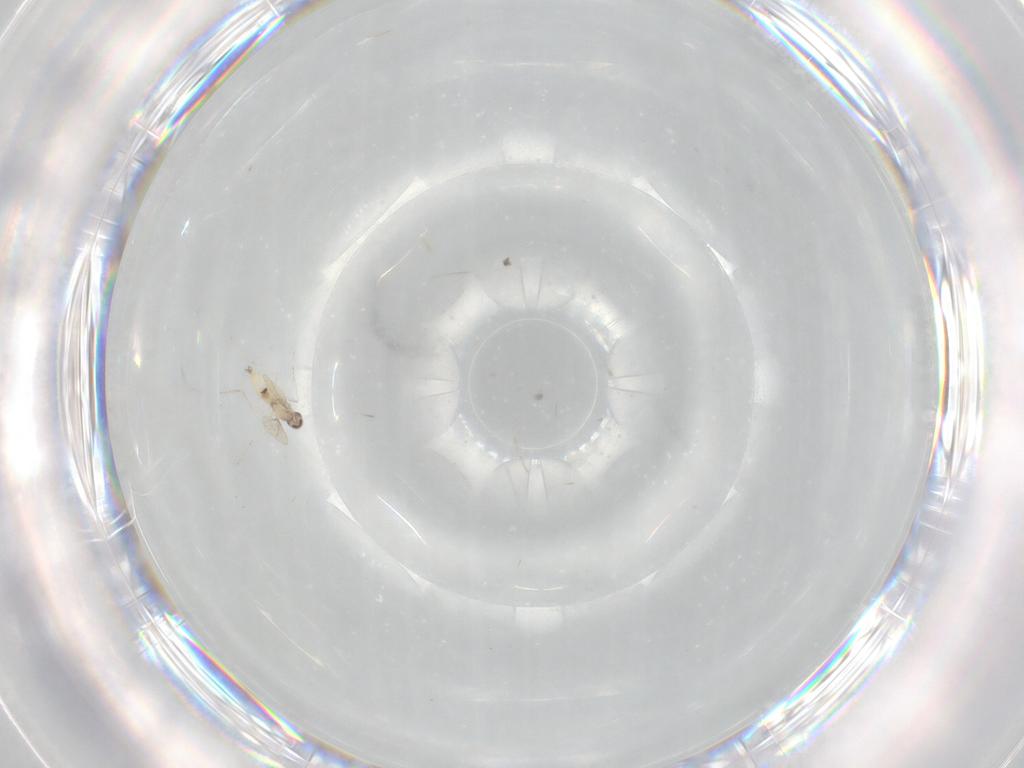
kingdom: Animalia
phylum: Arthropoda
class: Insecta
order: Diptera
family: Cecidomyiidae
